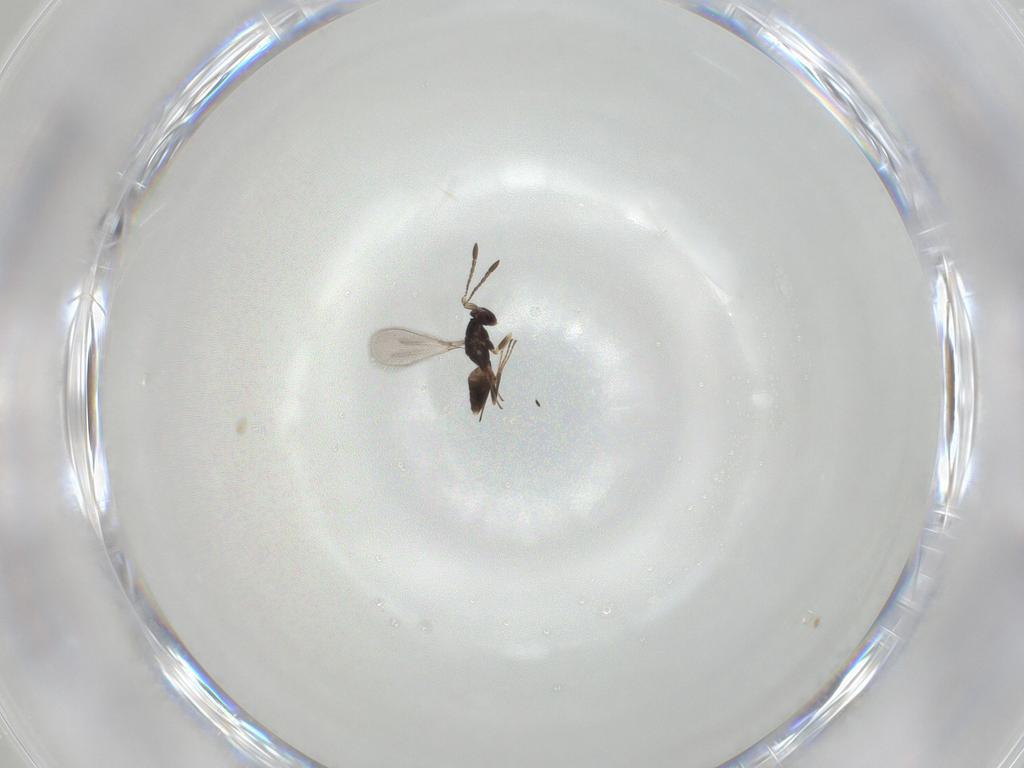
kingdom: Animalia
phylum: Arthropoda
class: Insecta
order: Hymenoptera
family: Mymaridae
